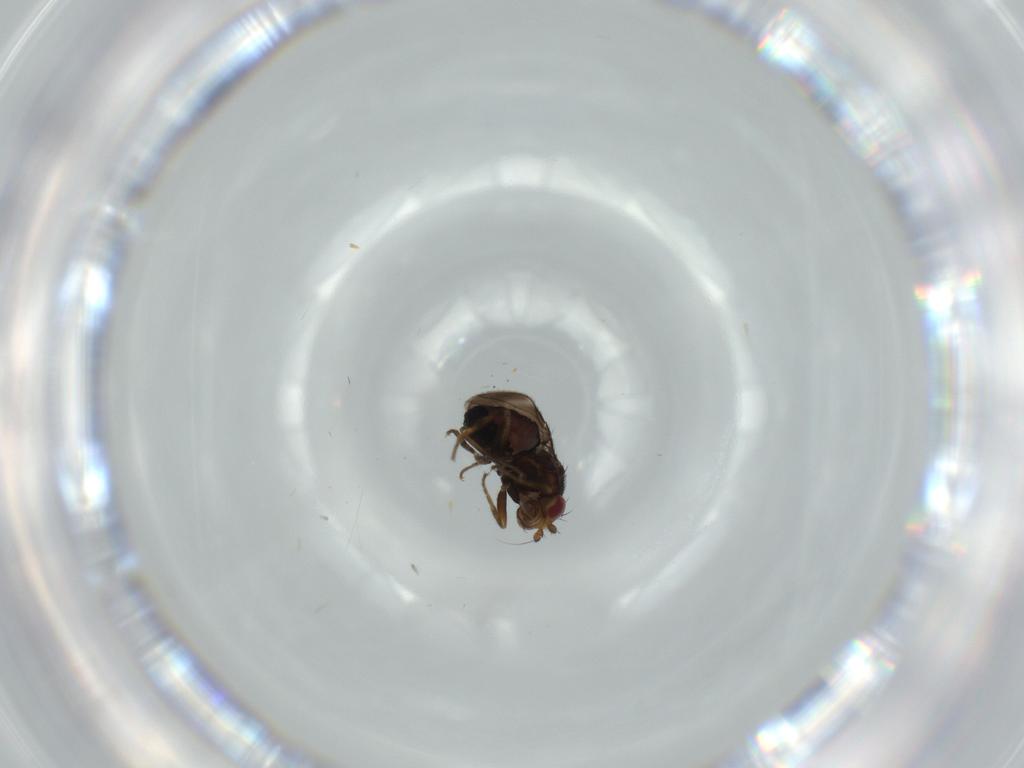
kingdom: Animalia
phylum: Arthropoda
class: Insecta
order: Diptera
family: Sphaeroceridae
